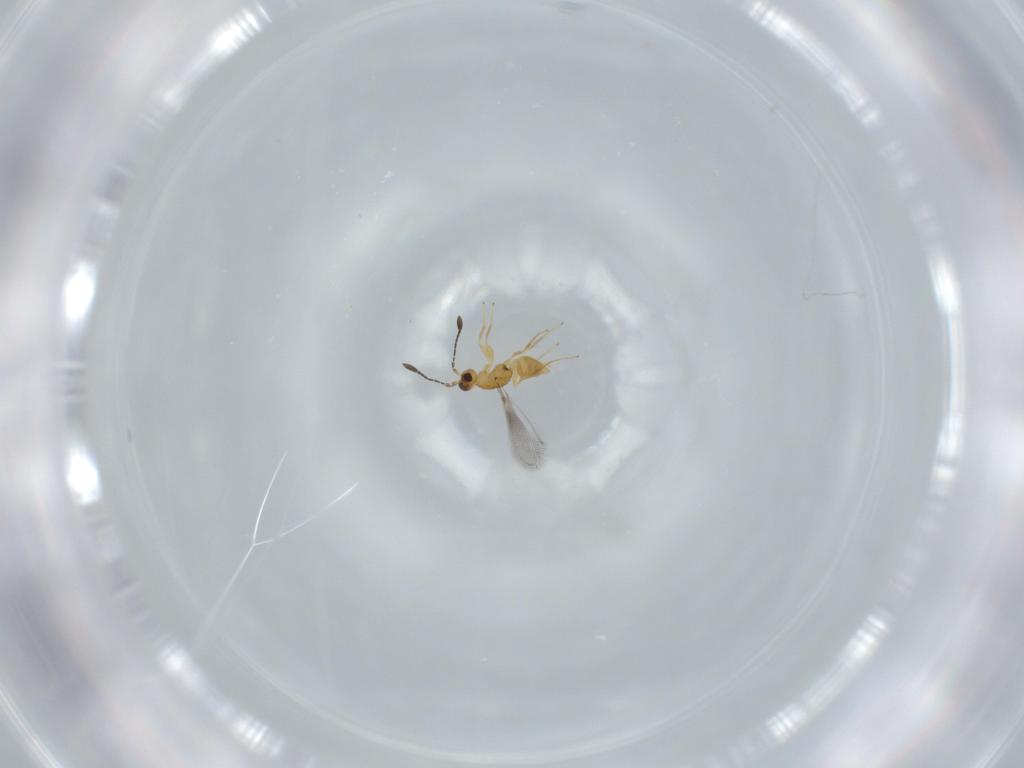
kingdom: Animalia
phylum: Arthropoda
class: Insecta
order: Hymenoptera
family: Mymaridae
